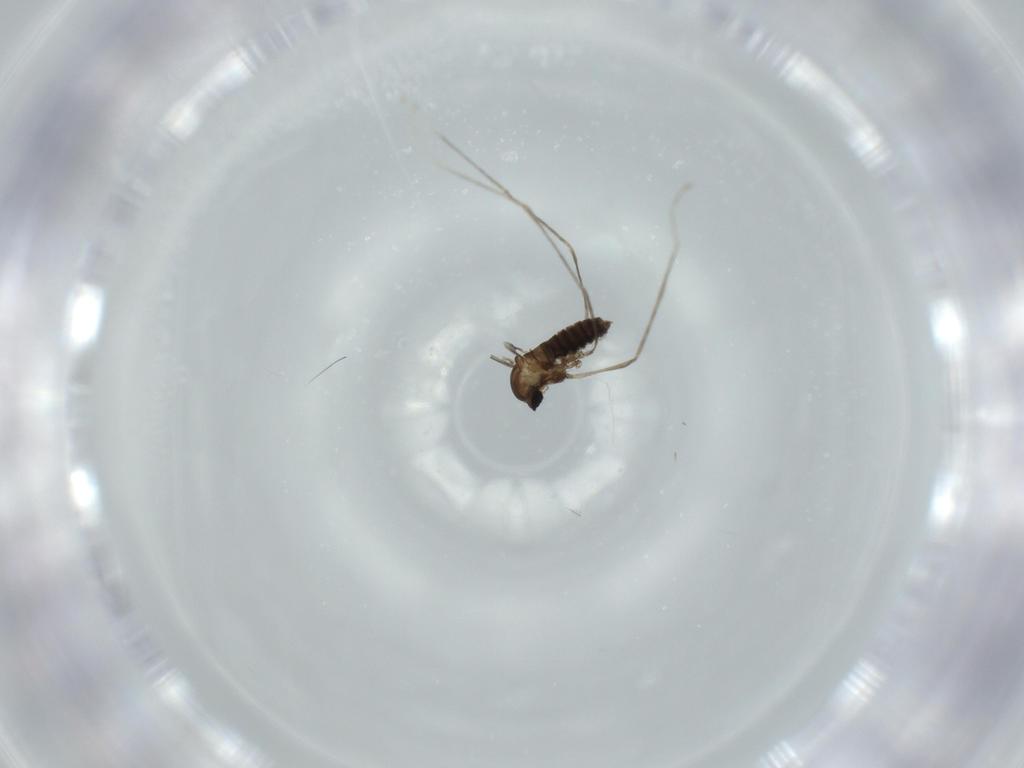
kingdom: Animalia
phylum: Arthropoda
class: Insecta
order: Diptera
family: Cecidomyiidae
